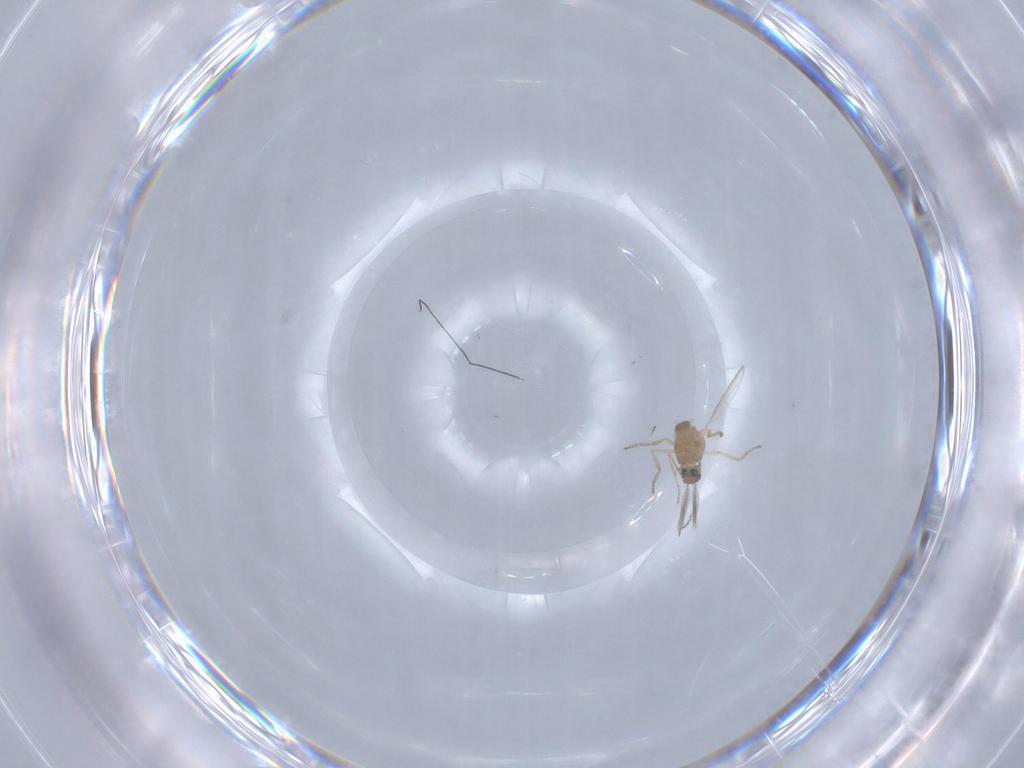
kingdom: Animalia
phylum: Arthropoda
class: Insecta
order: Diptera
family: Ceratopogonidae
